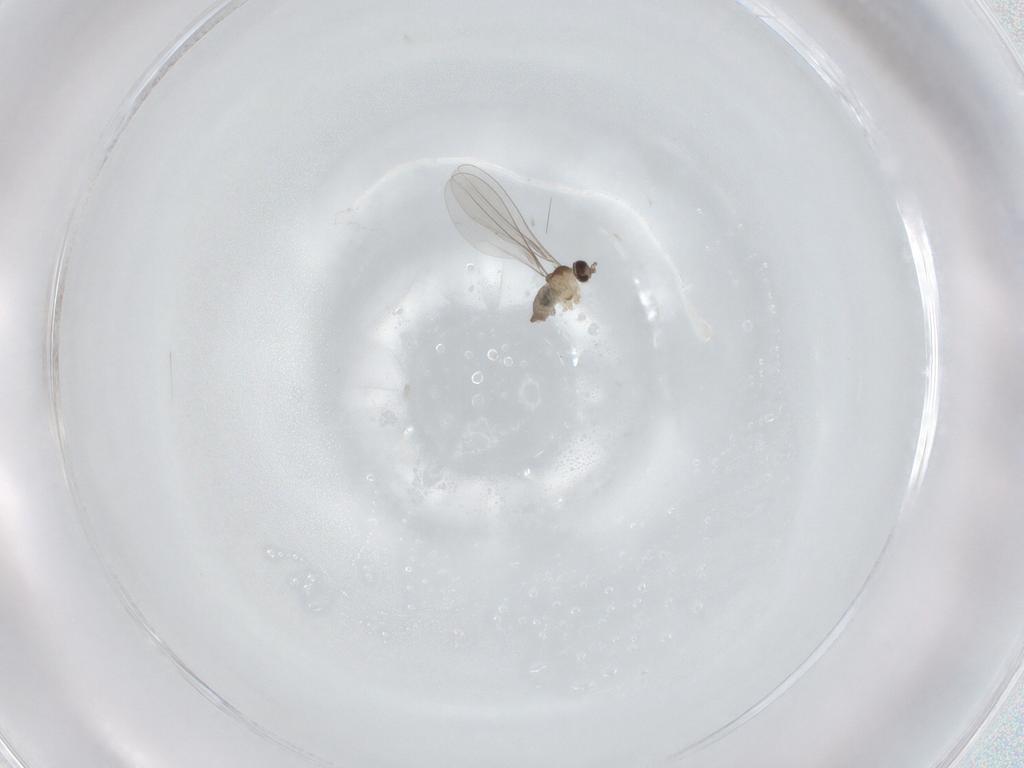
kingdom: Animalia
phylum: Arthropoda
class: Insecta
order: Diptera
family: Cecidomyiidae
